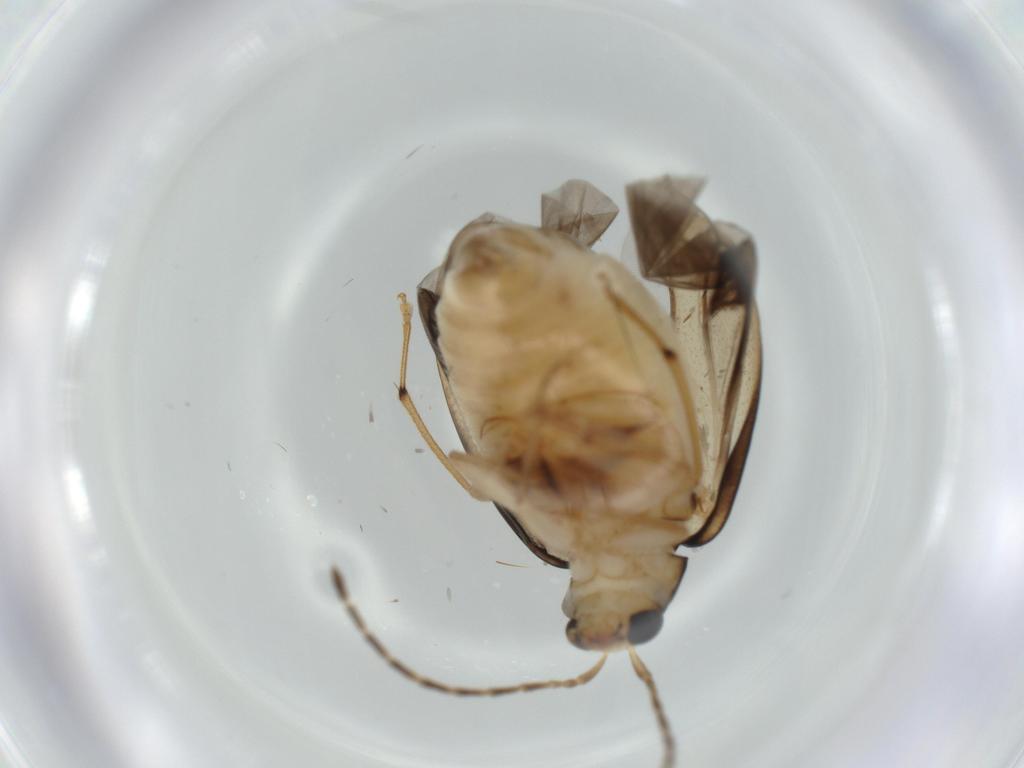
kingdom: Animalia
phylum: Arthropoda
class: Insecta
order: Coleoptera
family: Chrysomelidae
